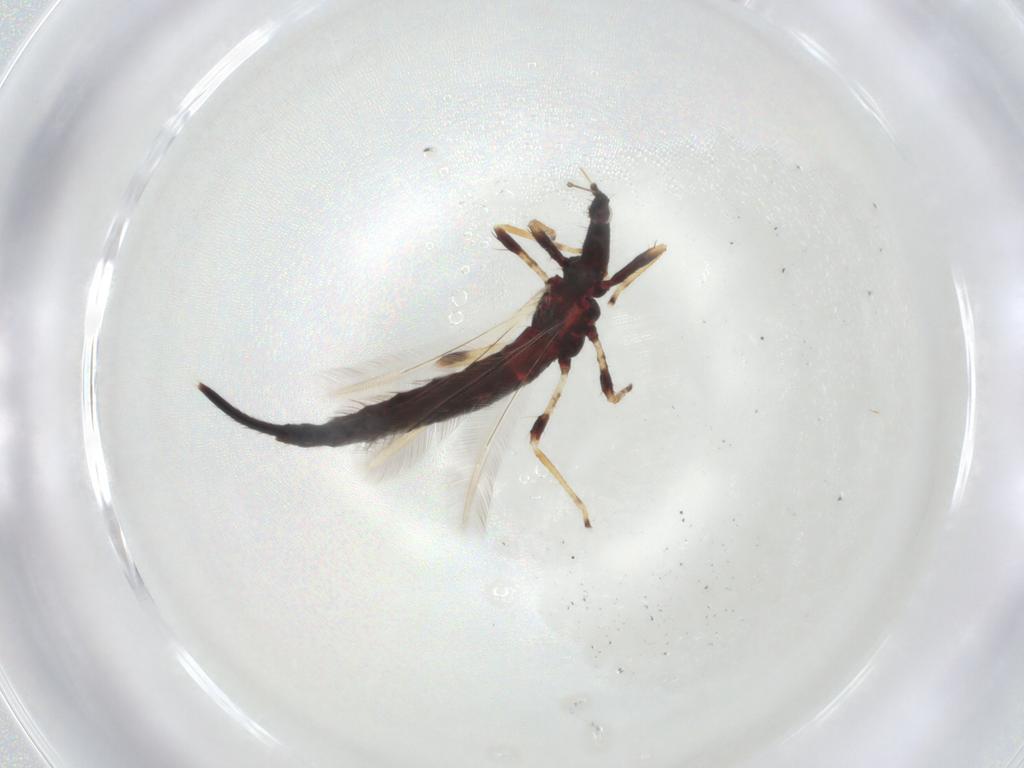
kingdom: Animalia
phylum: Arthropoda
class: Insecta
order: Thysanoptera
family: Phlaeothripidae
